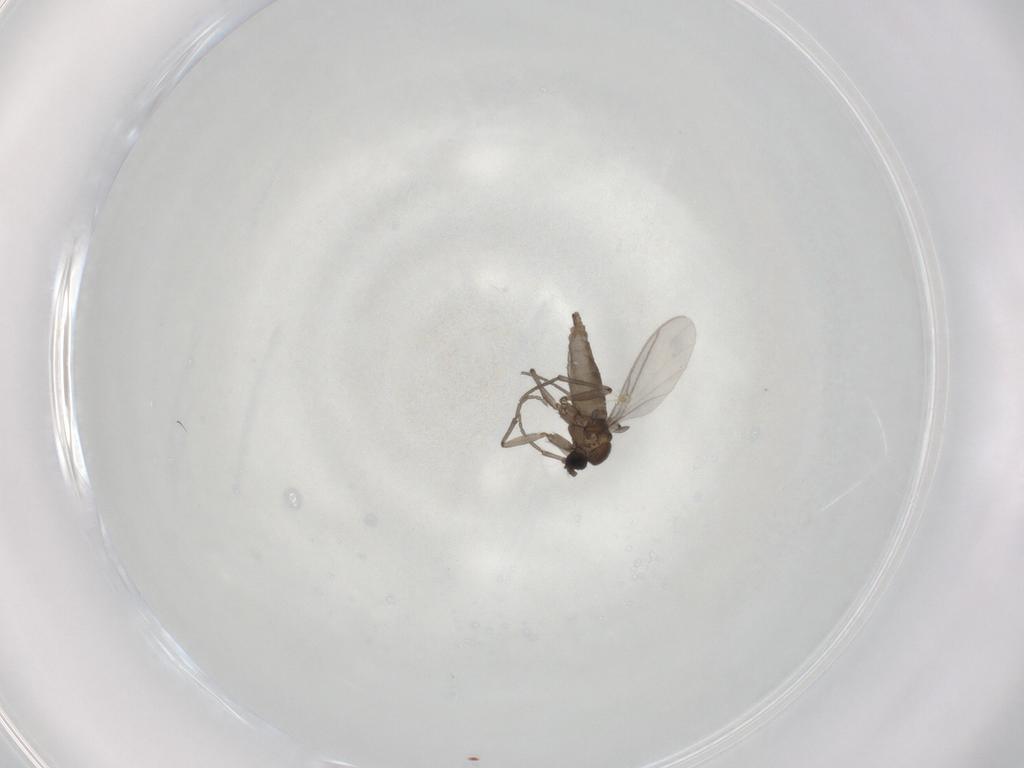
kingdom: Animalia
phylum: Arthropoda
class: Insecta
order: Diptera
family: Sciaridae
